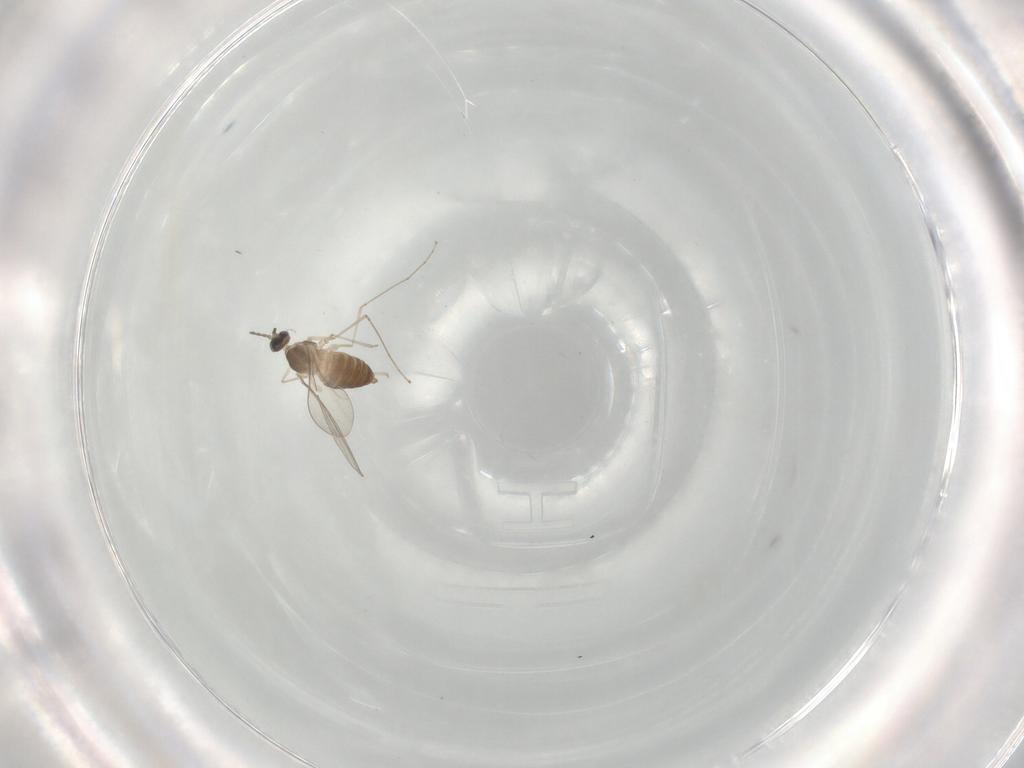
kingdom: Animalia
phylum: Arthropoda
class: Insecta
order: Diptera
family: Cecidomyiidae
